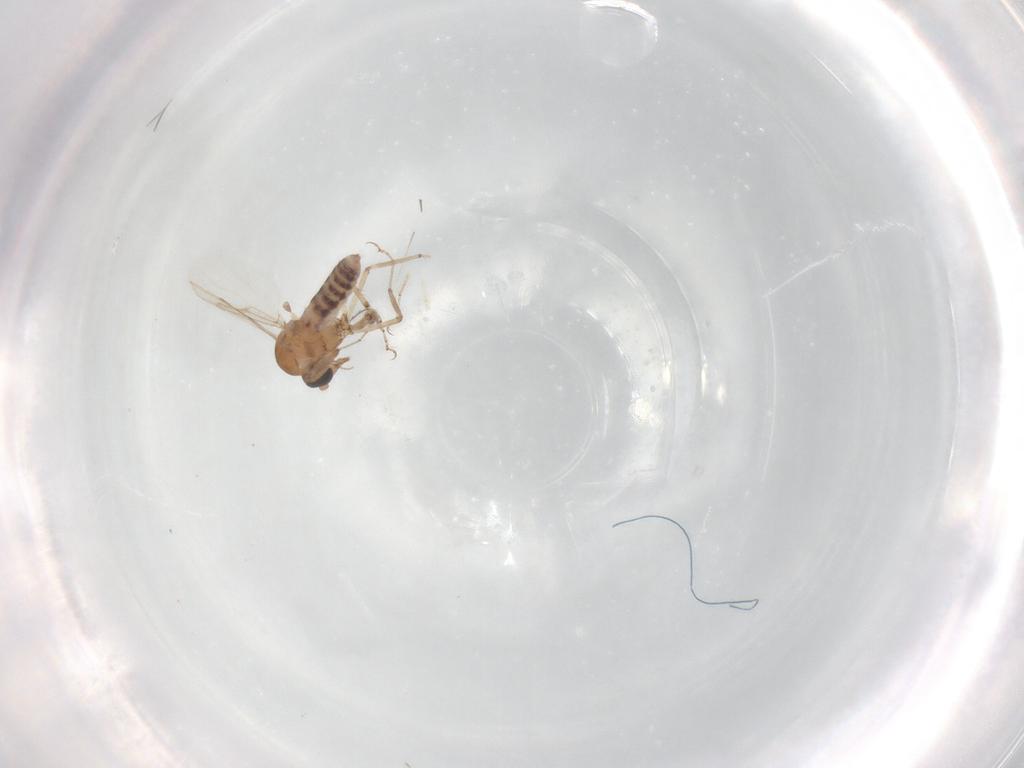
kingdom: Animalia
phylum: Arthropoda
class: Insecta
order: Diptera
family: Ceratopogonidae
